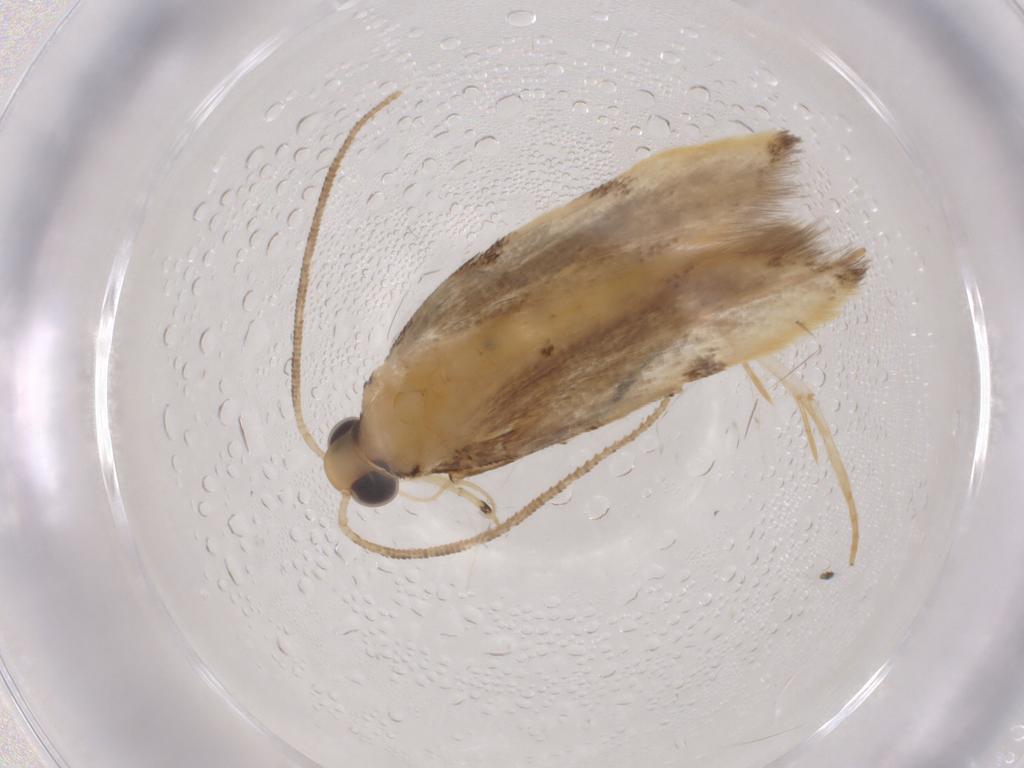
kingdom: Animalia
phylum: Arthropoda
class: Insecta
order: Lepidoptera
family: Autostichidae
